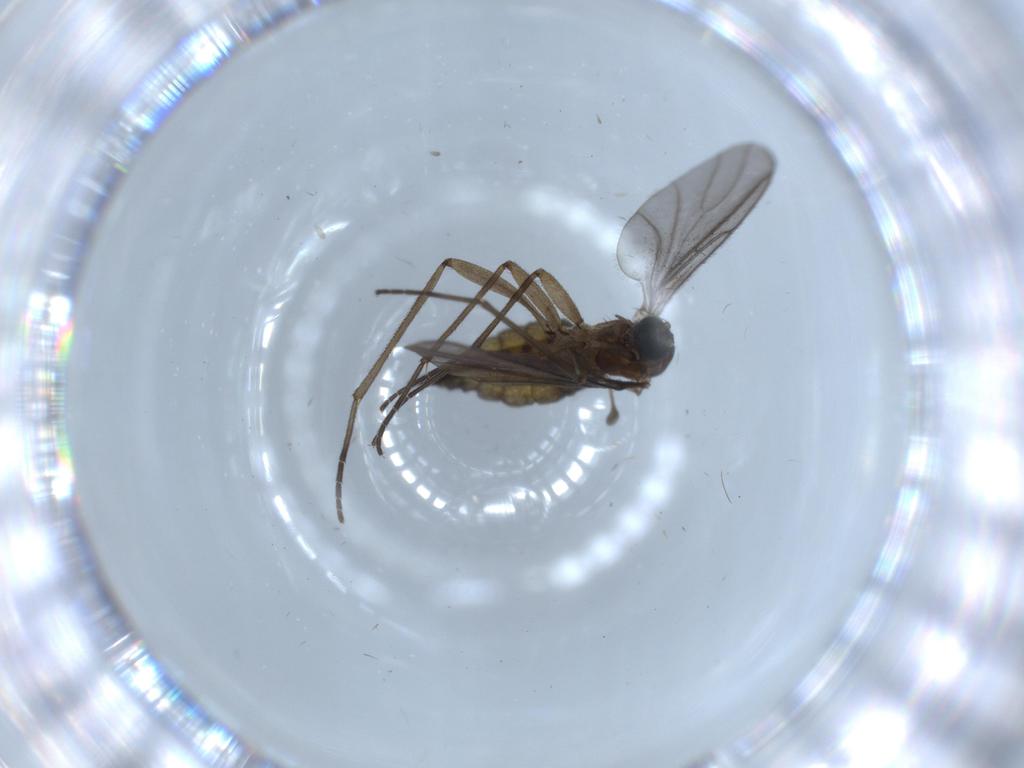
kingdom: Animalia
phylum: Arthropoda
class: Insecta
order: Diptera
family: Sciaridae
